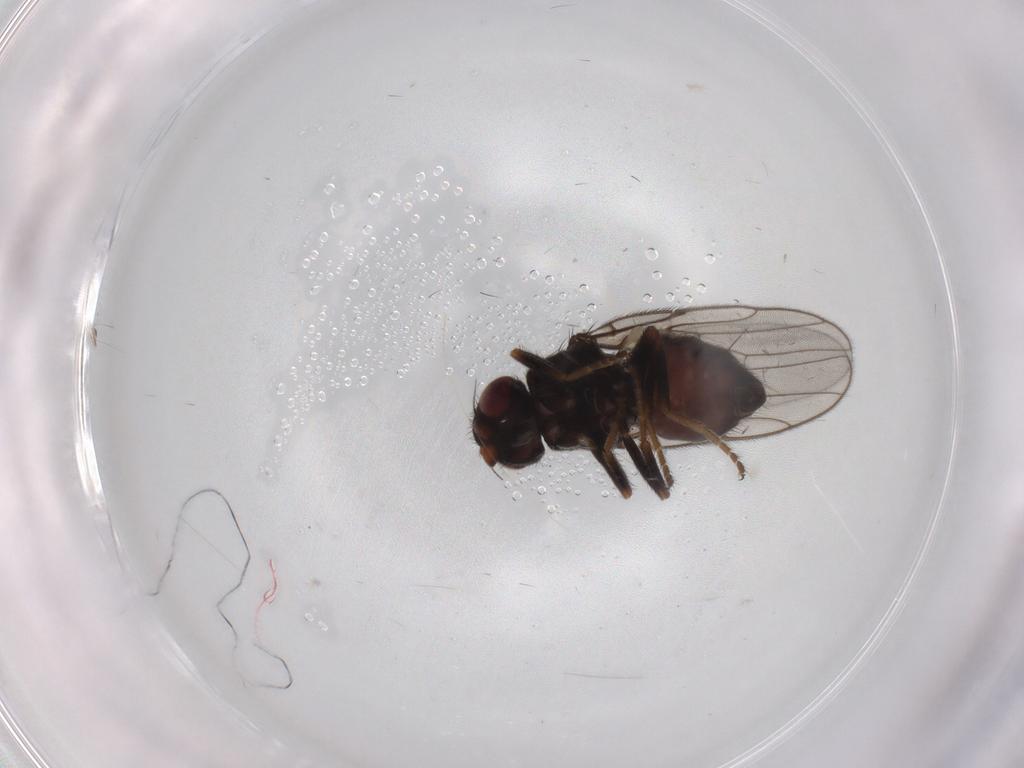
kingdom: Animalia
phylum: Arthropoda
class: Insecta
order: Diptera
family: Chloropidae
